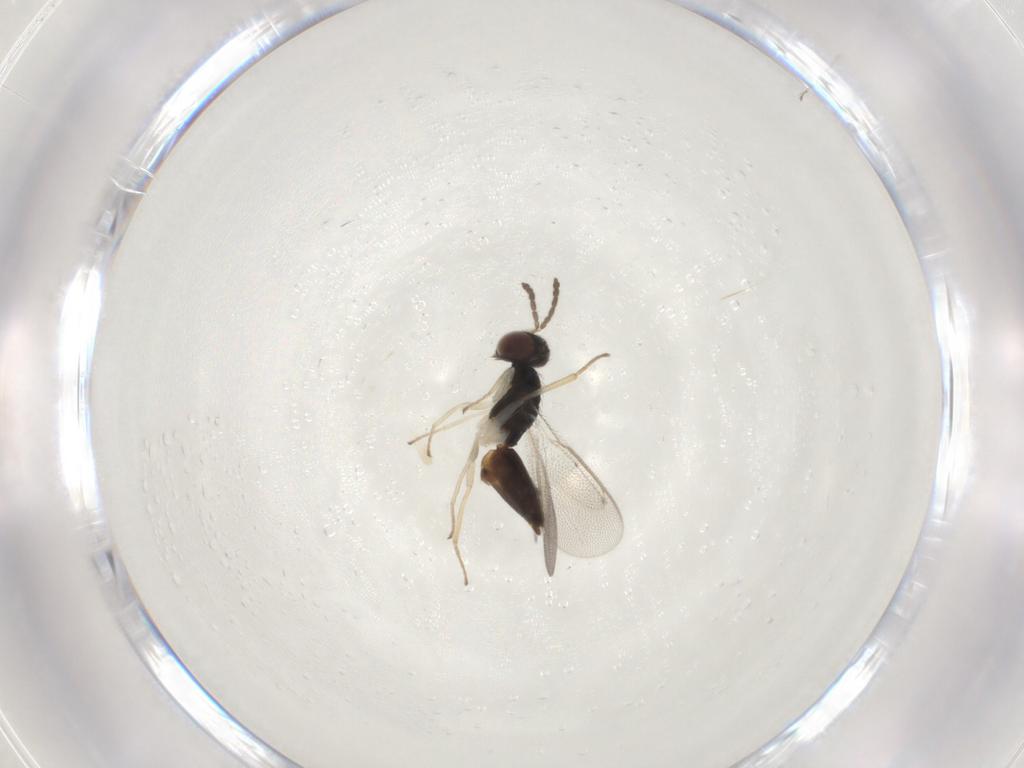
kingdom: Animalia
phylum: Arthropoda
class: Insecta
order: Hymenoptera
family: Eulophidae
